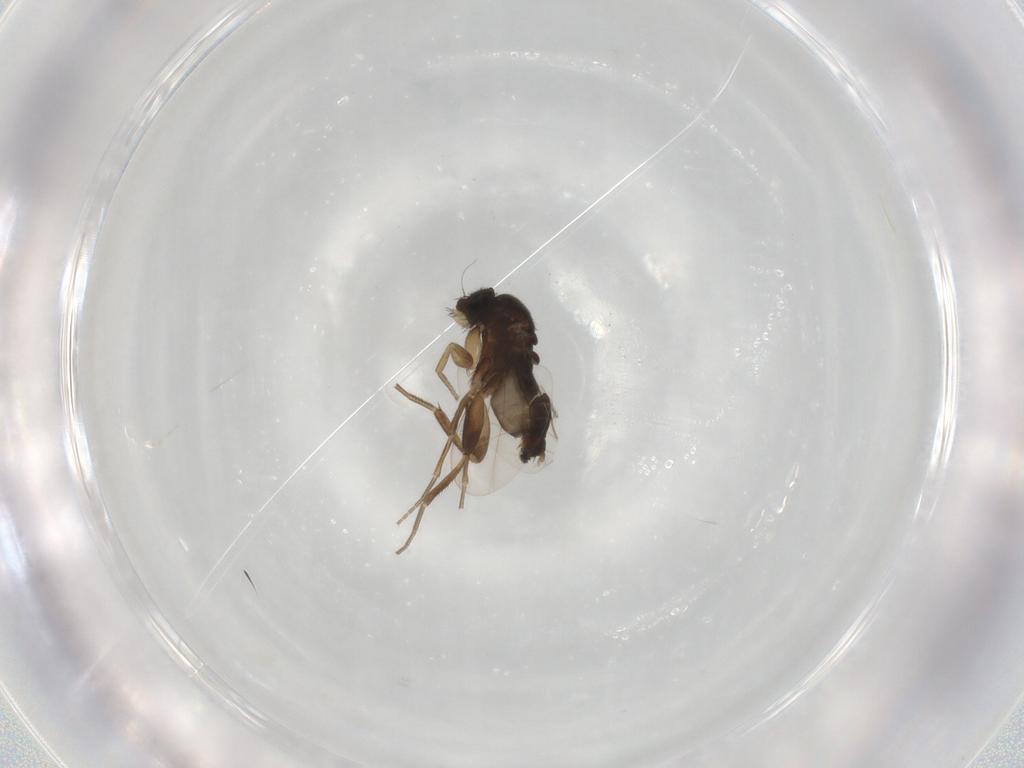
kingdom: Animalia
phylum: Arthropoda
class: Insecta
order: Diptera
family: Phoridae
